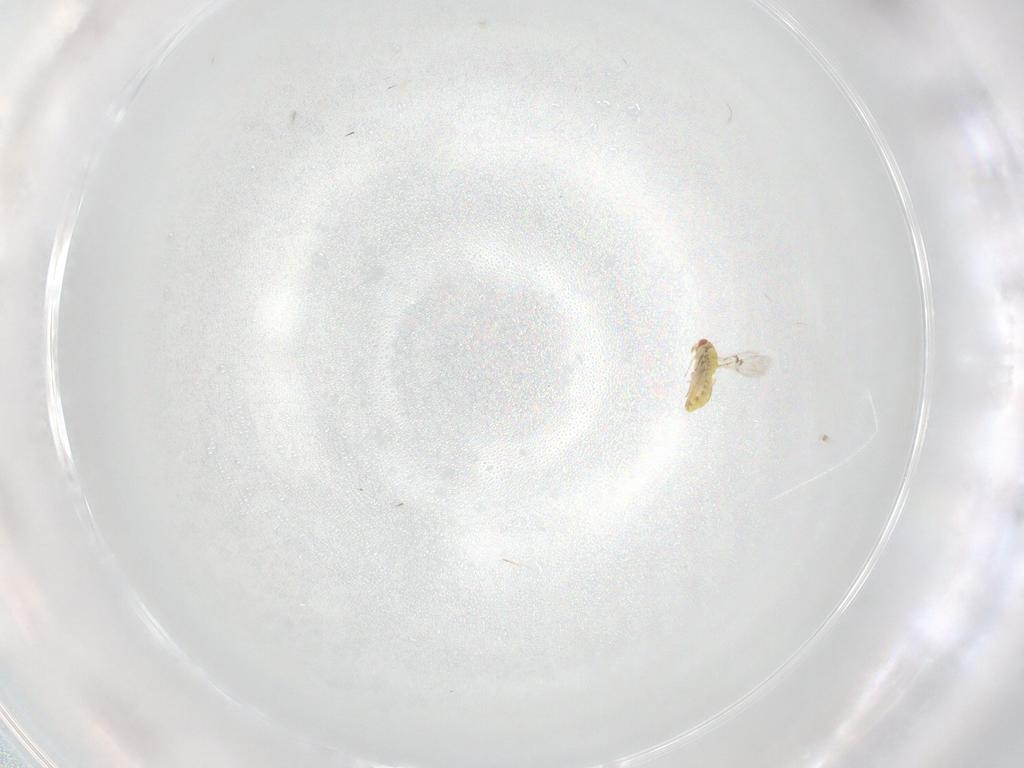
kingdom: Animalia
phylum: Arthropoda
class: Insecta
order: Hymenoptera
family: Trichogrammatidae
